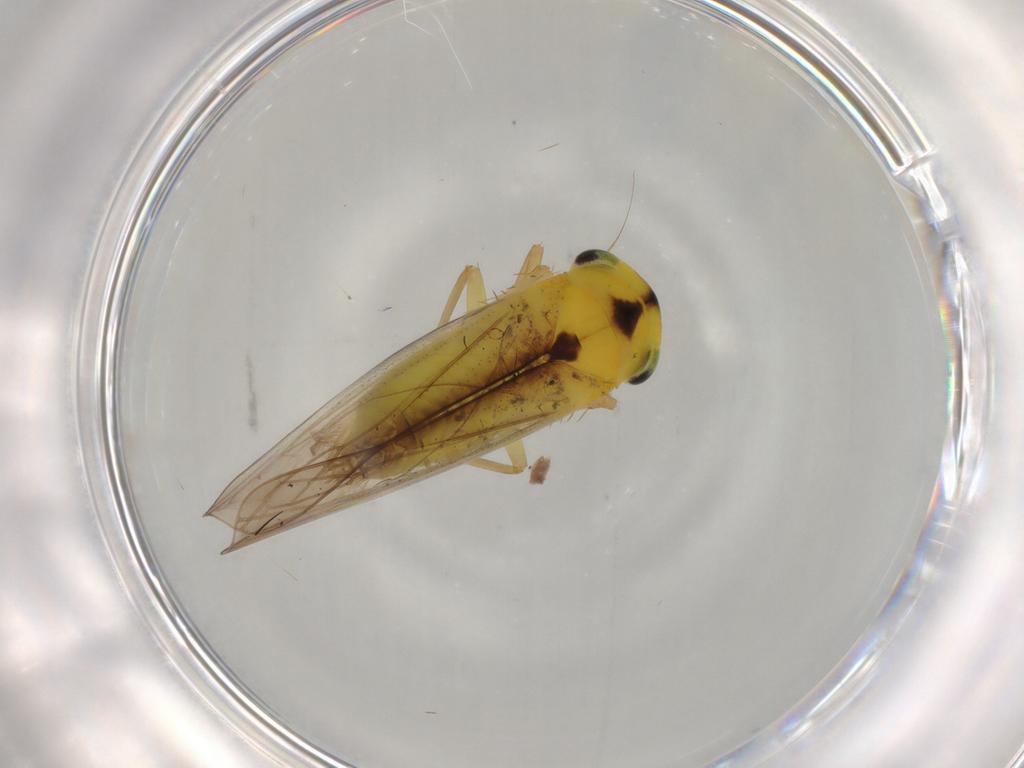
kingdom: Animalia
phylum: Arthropoda
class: Insecta
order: Hemiptera
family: Cicadellidae
